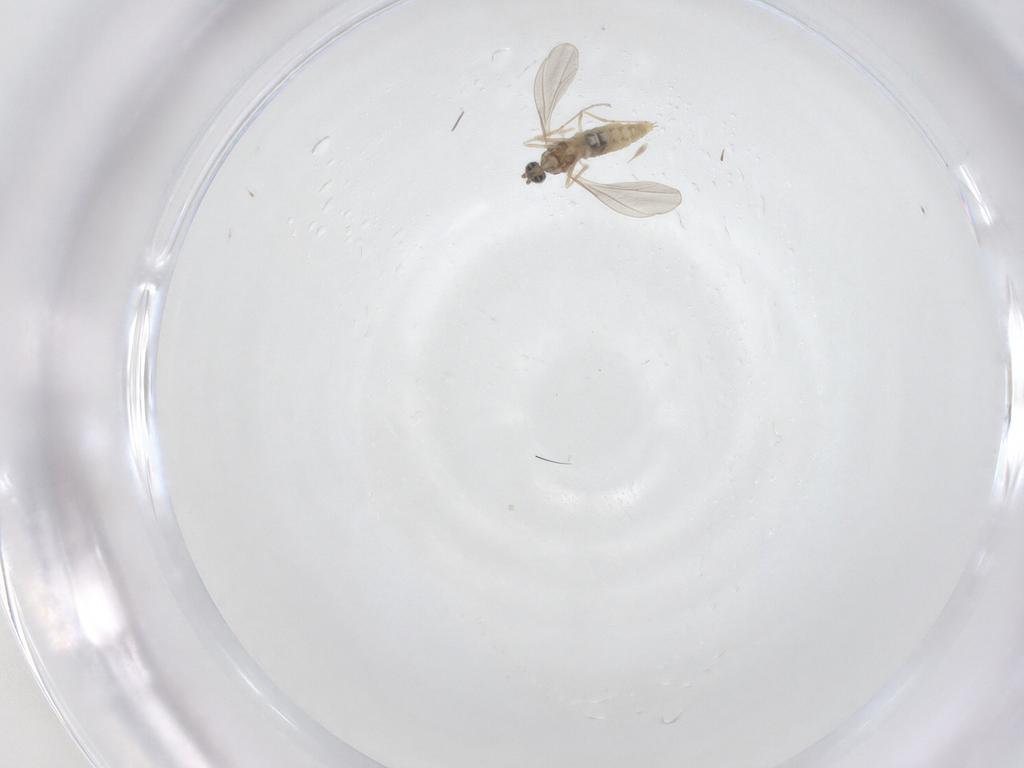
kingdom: Animalia
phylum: Arthropoda
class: Insecta
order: Diptera
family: Cecidomyiidae
